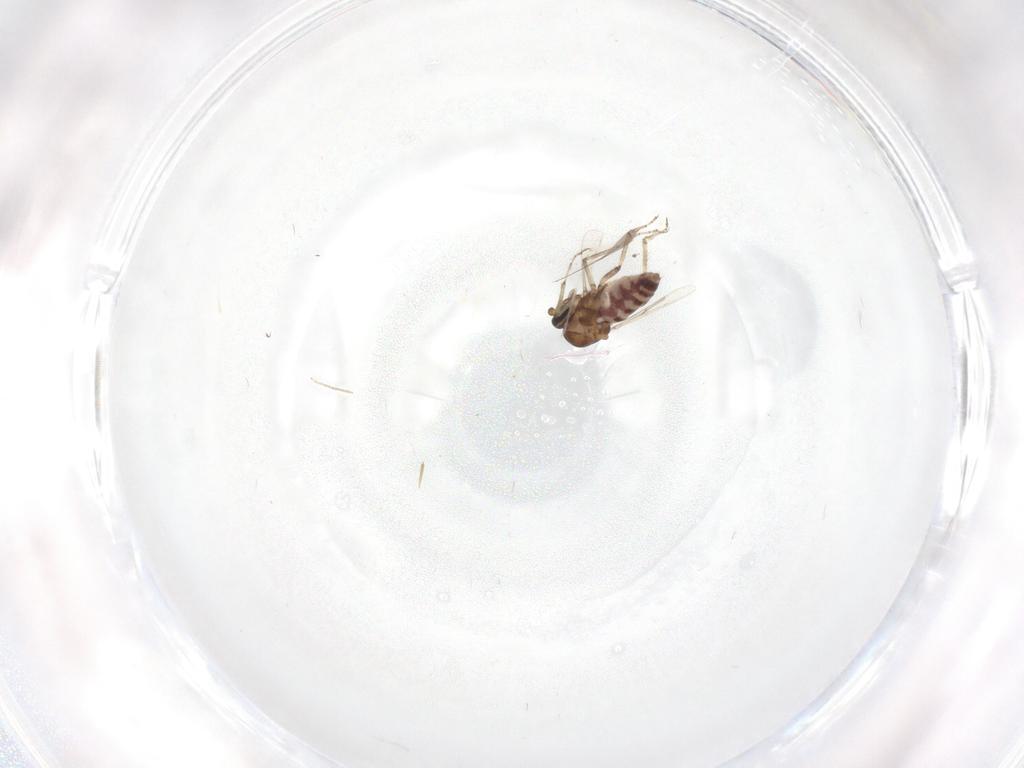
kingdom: Animalia
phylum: Arthropoda
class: Insecta
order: Diptera
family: Ceratopogonidae
